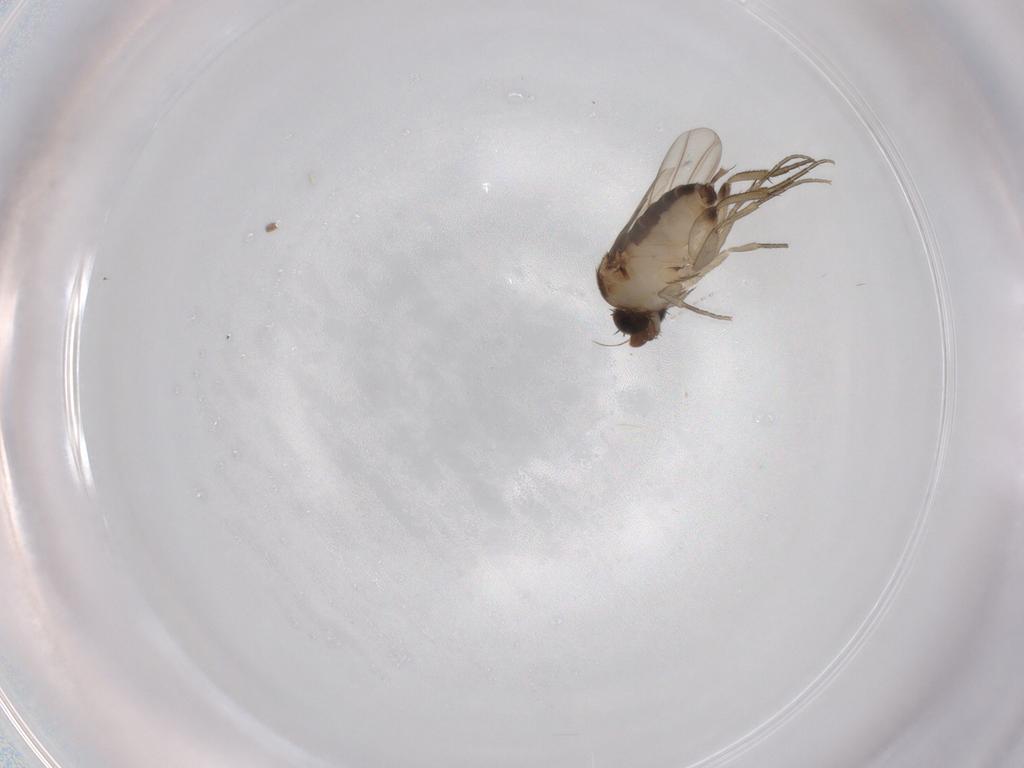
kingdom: Animalia
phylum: Arthropoda
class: Insecta
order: Diptera
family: Phoridae
